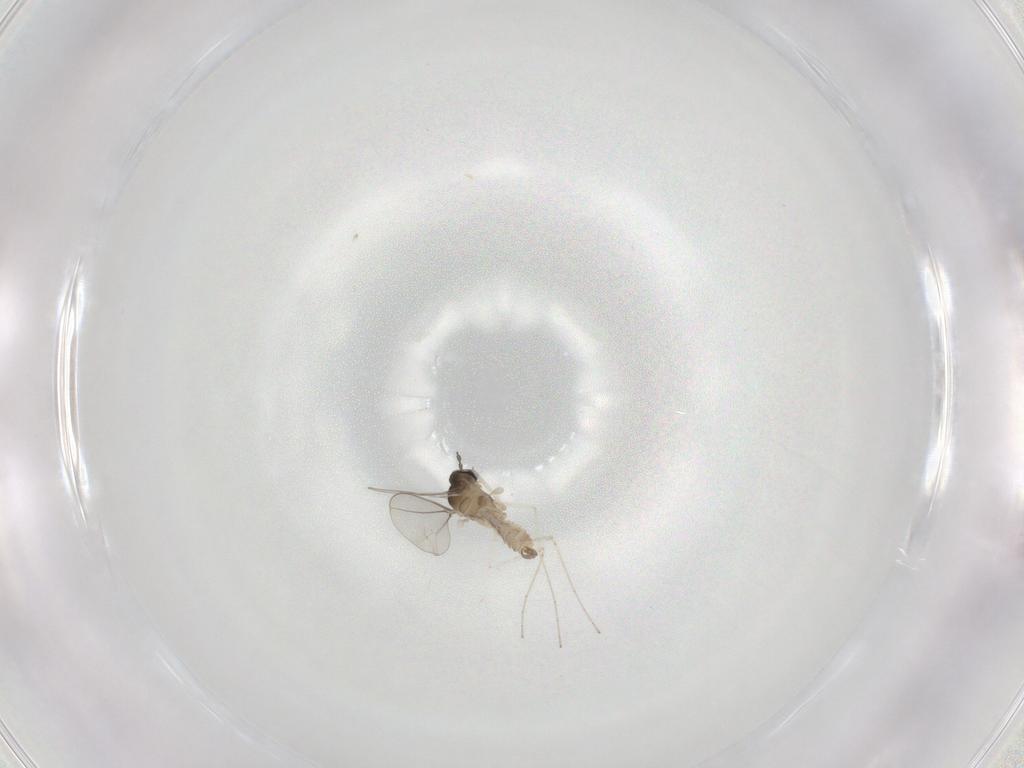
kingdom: Animalia
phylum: Arthropoda
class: Insecta
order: Diptera
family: Cecidomyiidae
